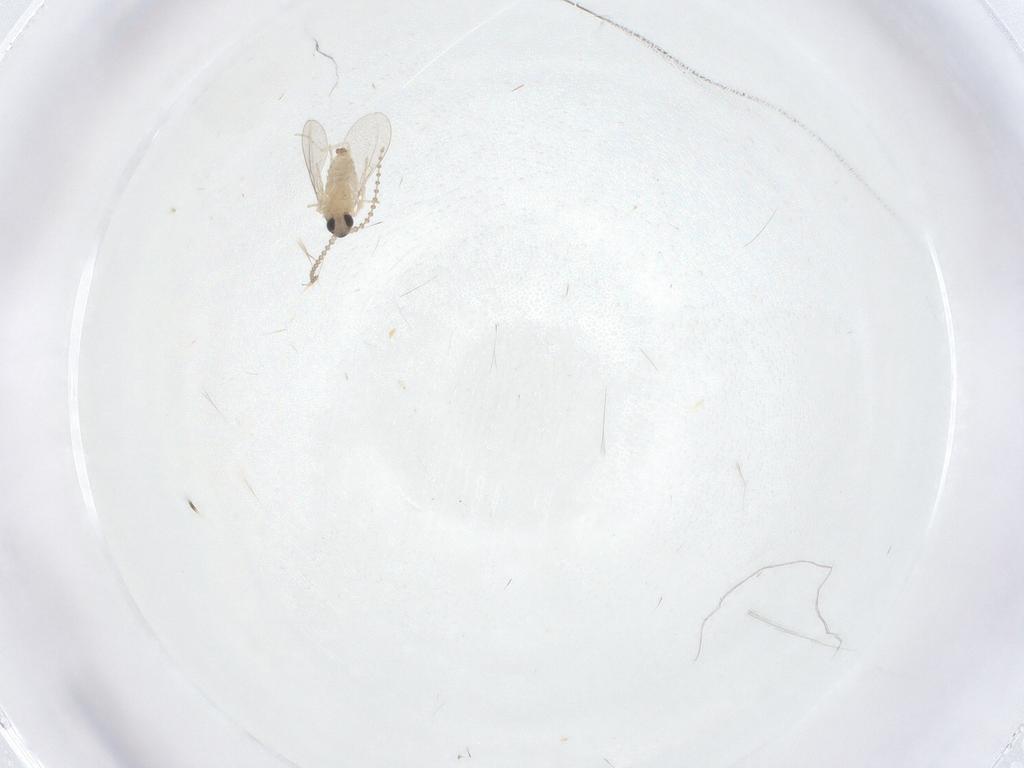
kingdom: Animalia
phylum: Arthropoda
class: Insecta
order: Diptera
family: Cecidomyiidae
